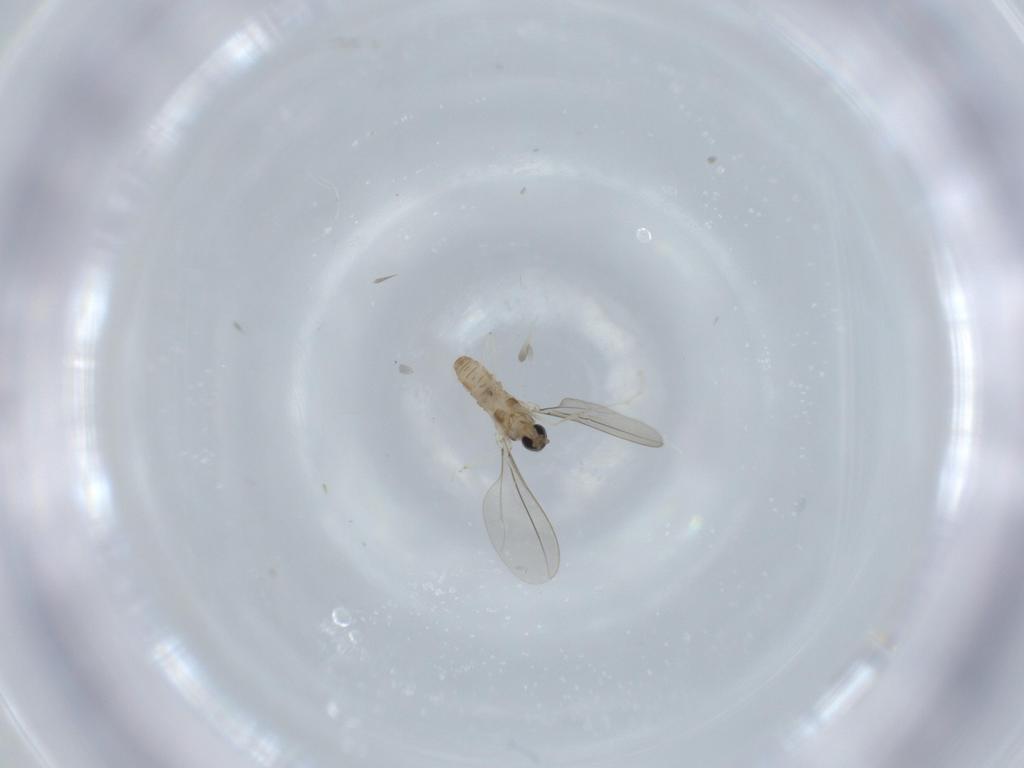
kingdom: Animalia
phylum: Arthropoda
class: Insecta
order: Diptera
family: Cecidomyiidae
